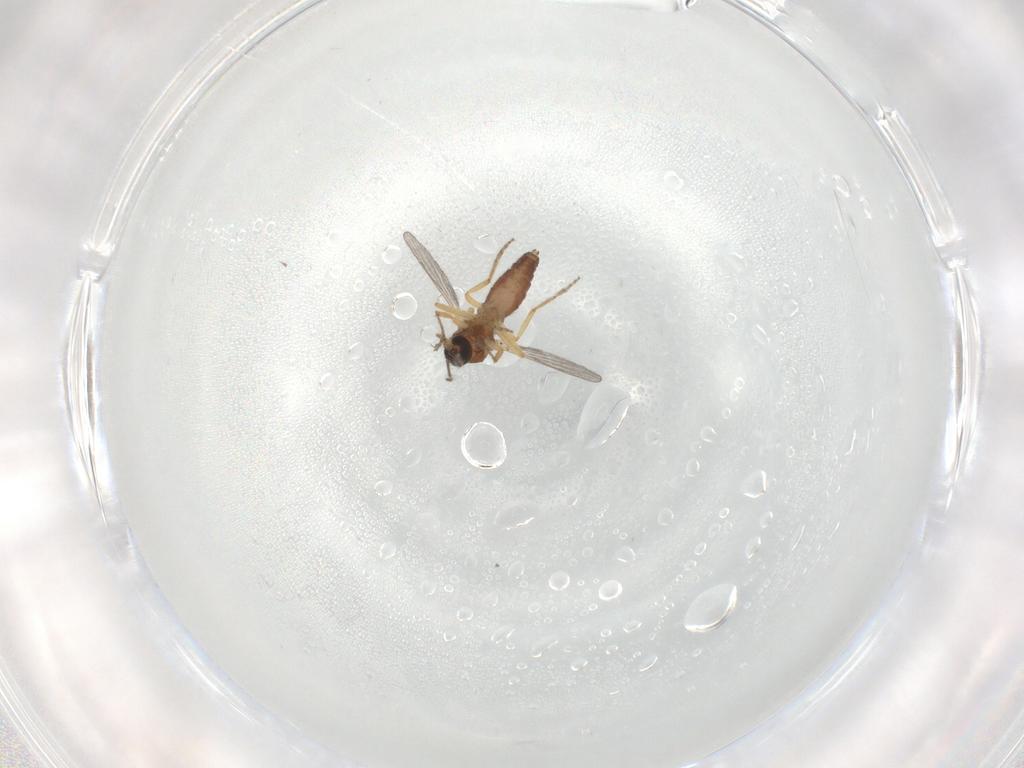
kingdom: Animalia
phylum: Arthropoda
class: Insecta
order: Diptera
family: Ceratopogonidae
